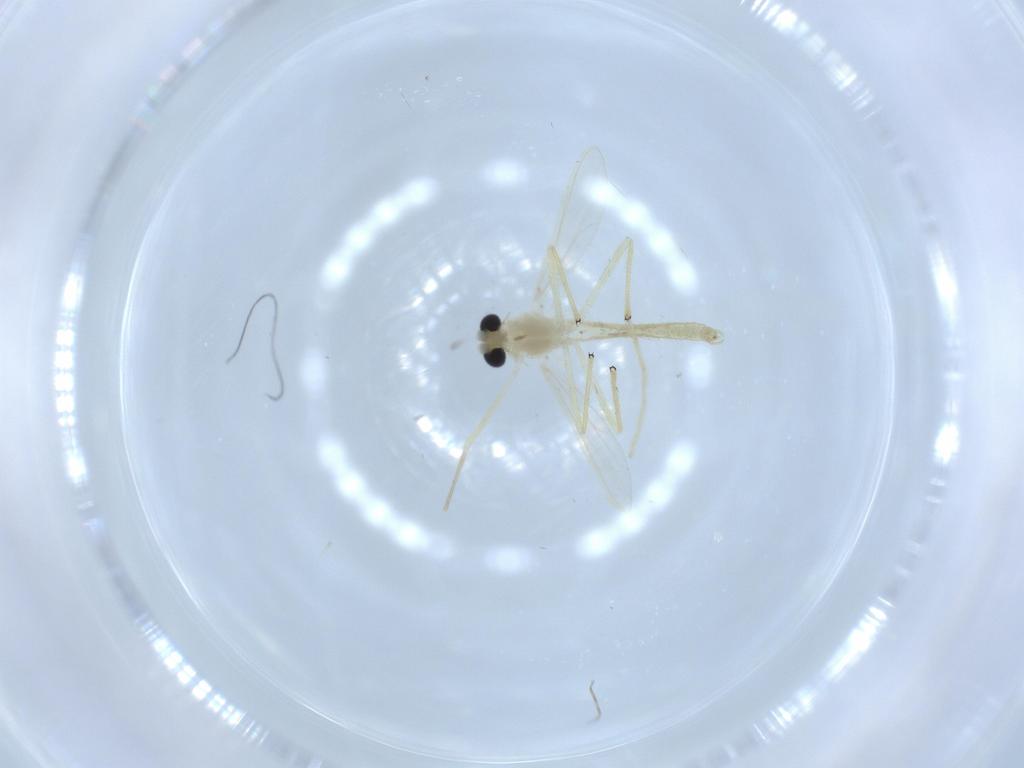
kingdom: Animalia
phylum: Arthropoda
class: Insecta
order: Diptera
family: Chironomidae
